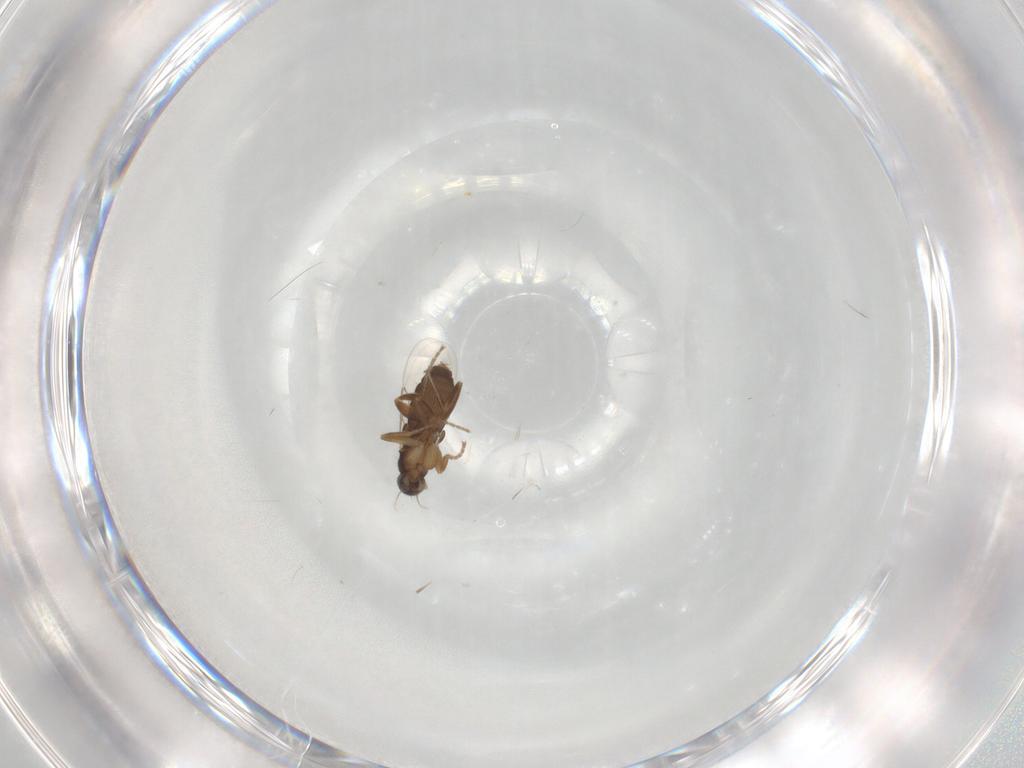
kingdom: Animalia
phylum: Arthropoda
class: Insecta
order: Diptera
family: Phoridae
